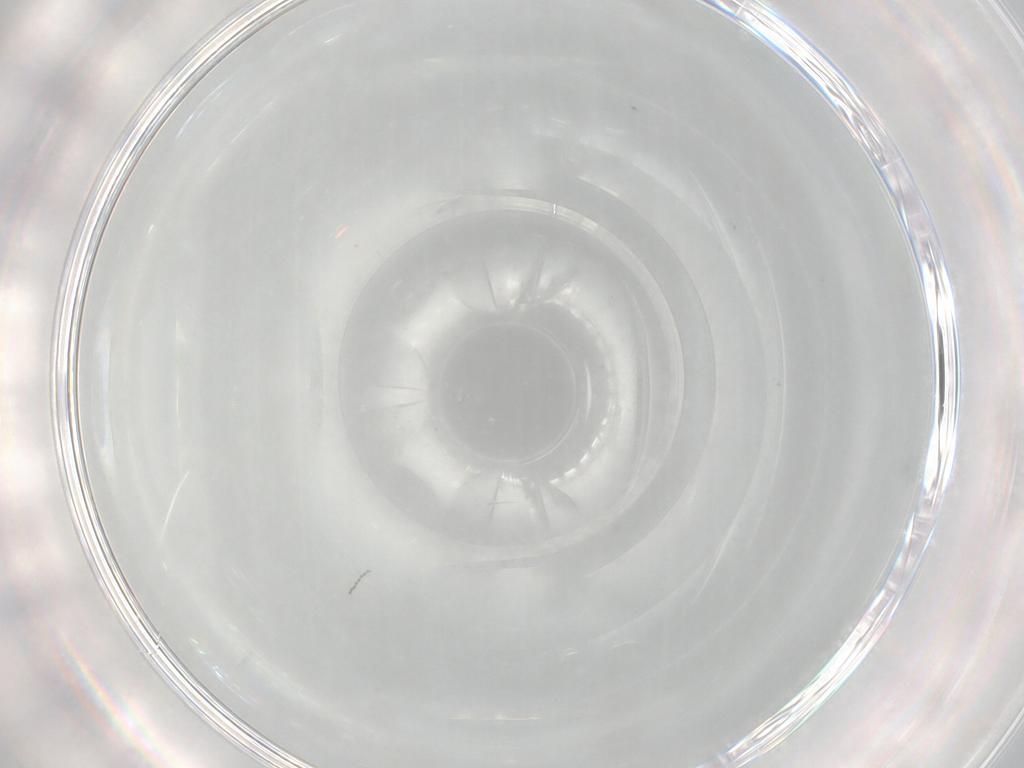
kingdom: Animalia
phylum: Arthropoda
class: Insecta
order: Diptera
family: Cecidomyiidae
